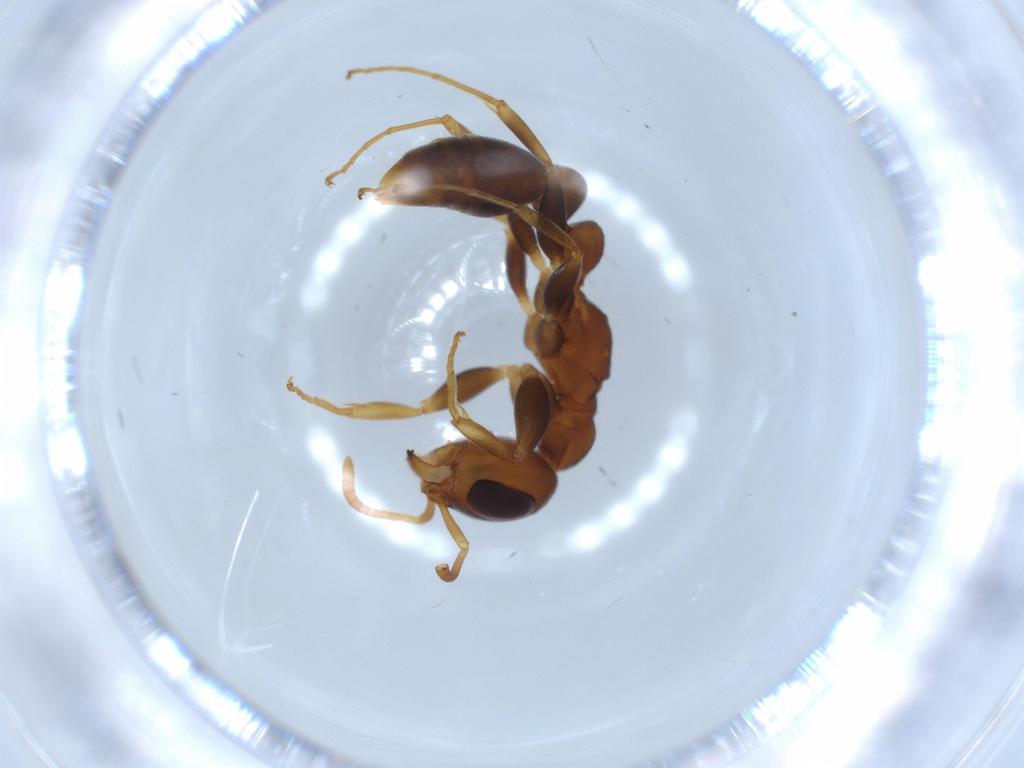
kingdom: Animalia
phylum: Arthropoda
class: Insecta
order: Hymenoptera
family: Formicidae
